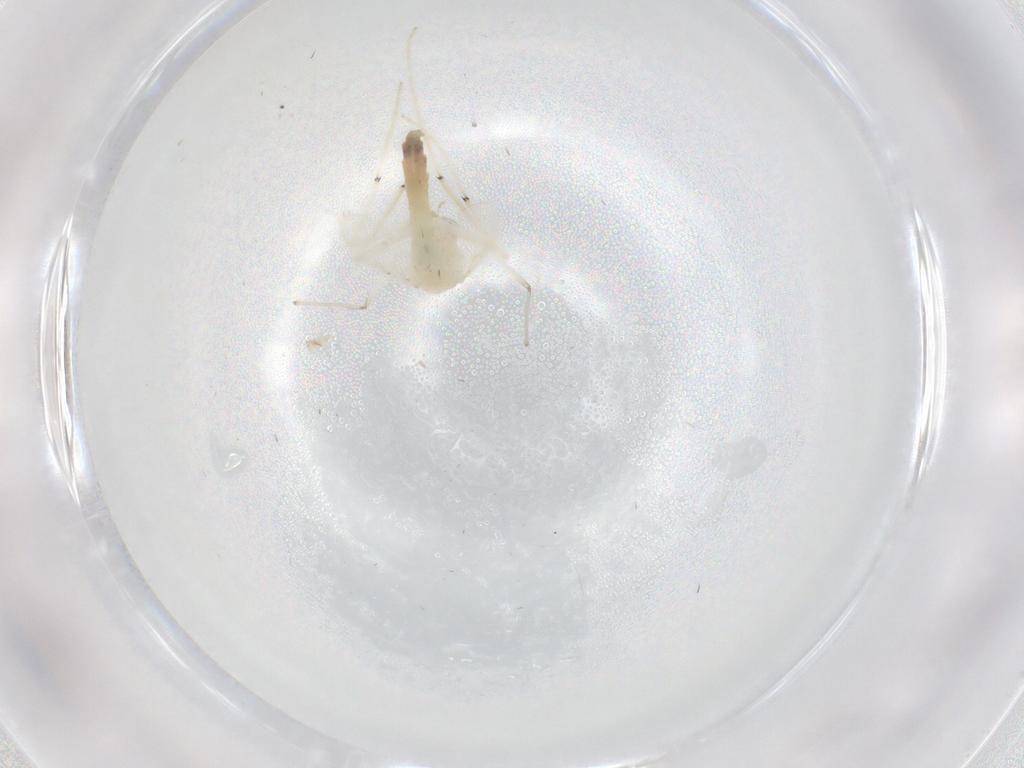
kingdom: Animalia
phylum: Arthropoda
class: Insecta
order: Diptera
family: Chironomidae
